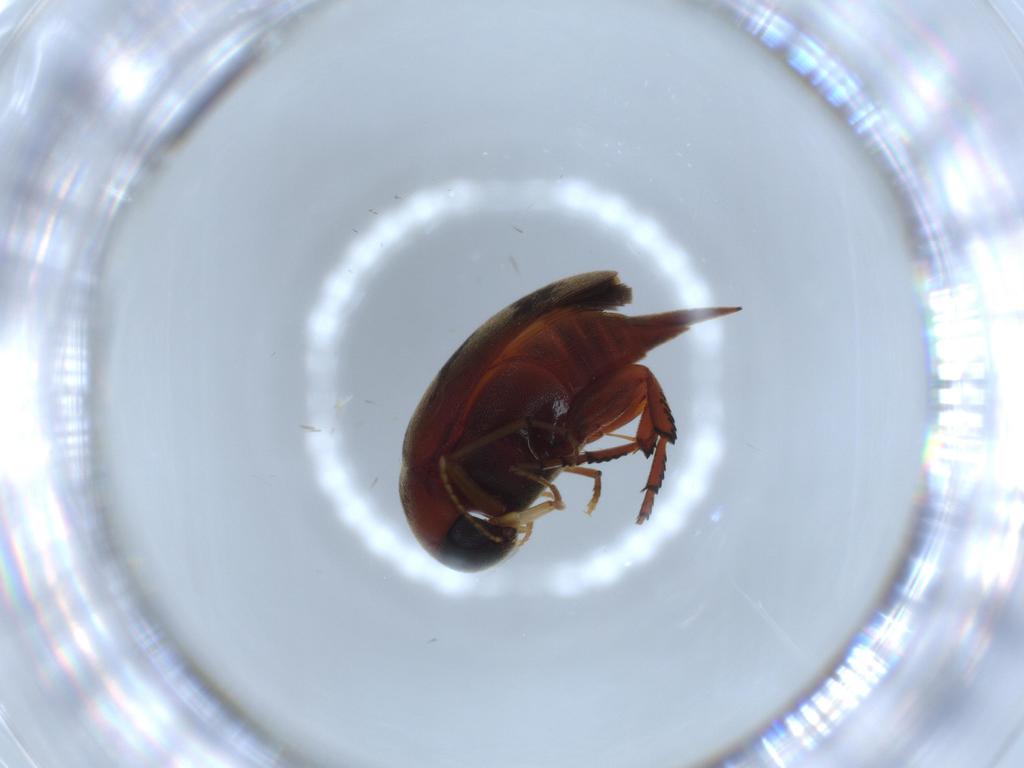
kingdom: Animalia
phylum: Arthropoda
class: Insecta
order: Coleoptera
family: Mordellidae
